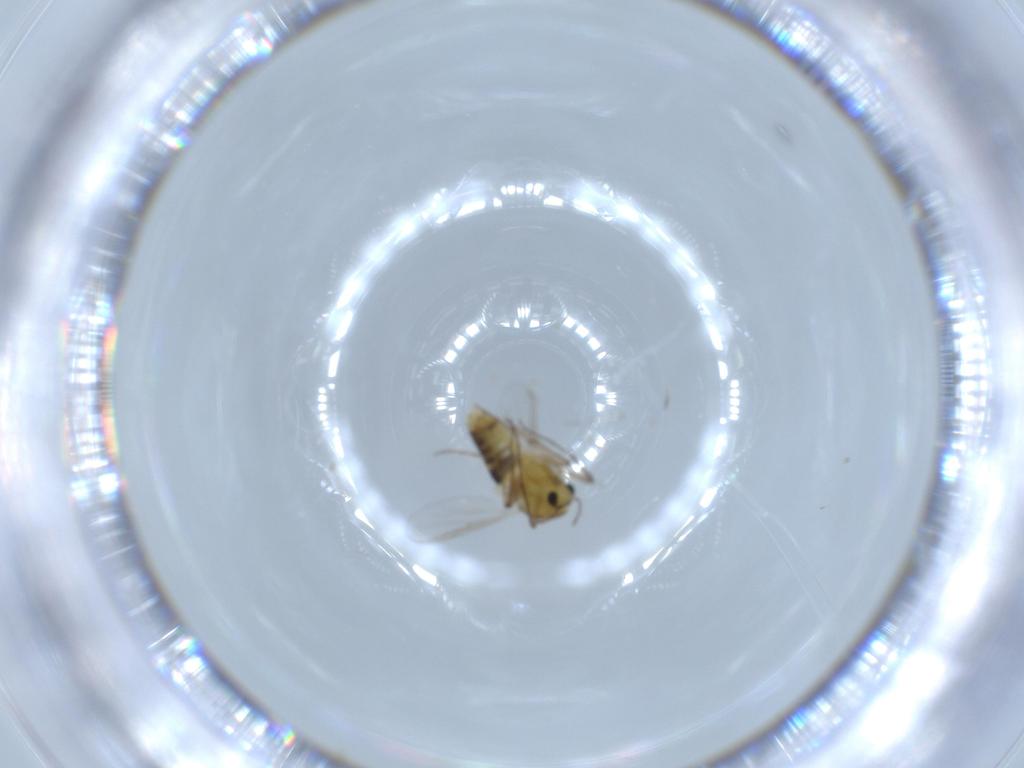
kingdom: Animalia
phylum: Arthropoda
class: Insecta
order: Diptera
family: Chironomidae
